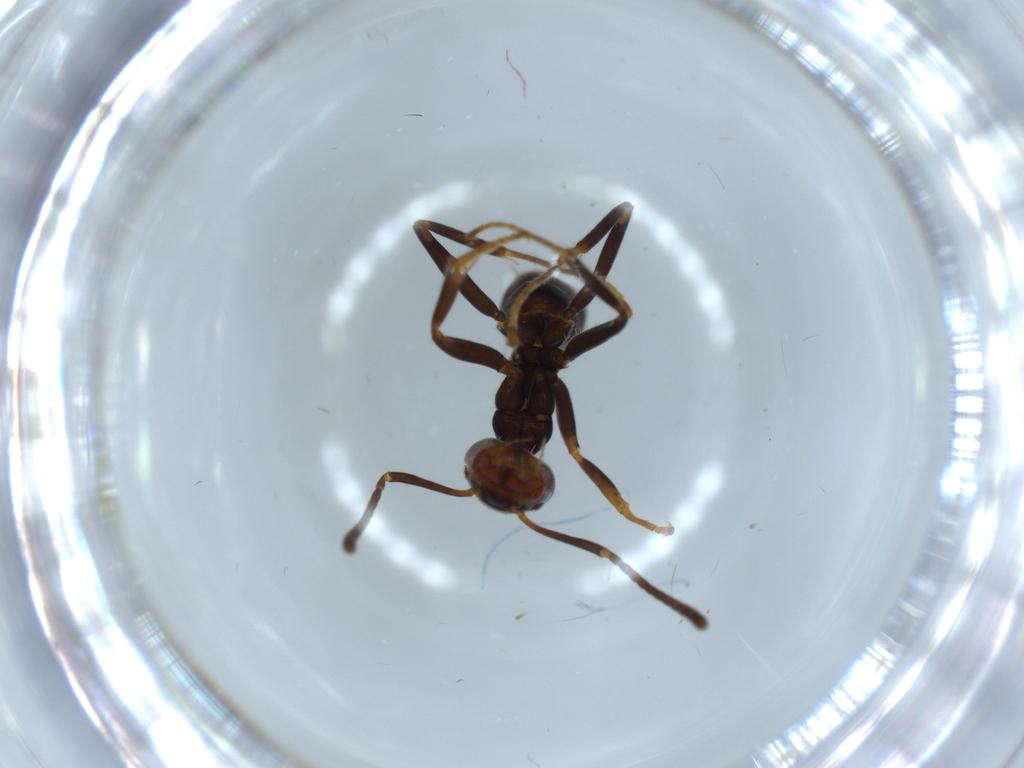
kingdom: Animalia
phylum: Arthropoda
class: Insecta
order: Hymenoptera
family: Formicidae
